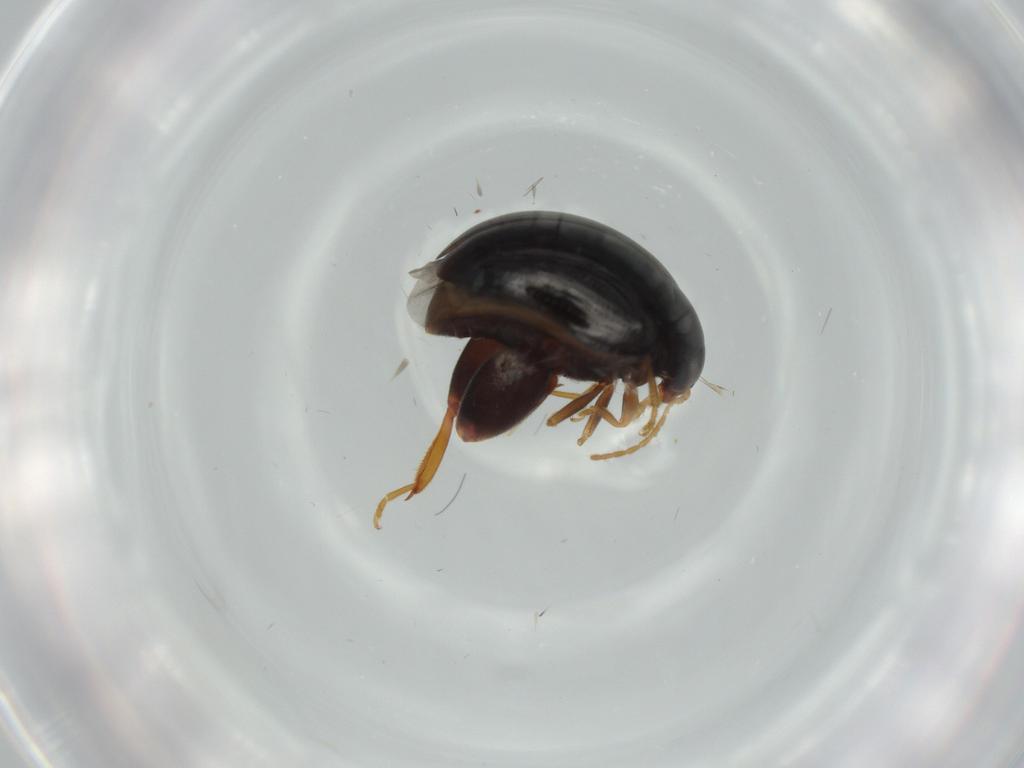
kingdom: Animalia
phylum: Arthropoda
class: Insecta
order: Coleoptera
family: Chrysomelidae
